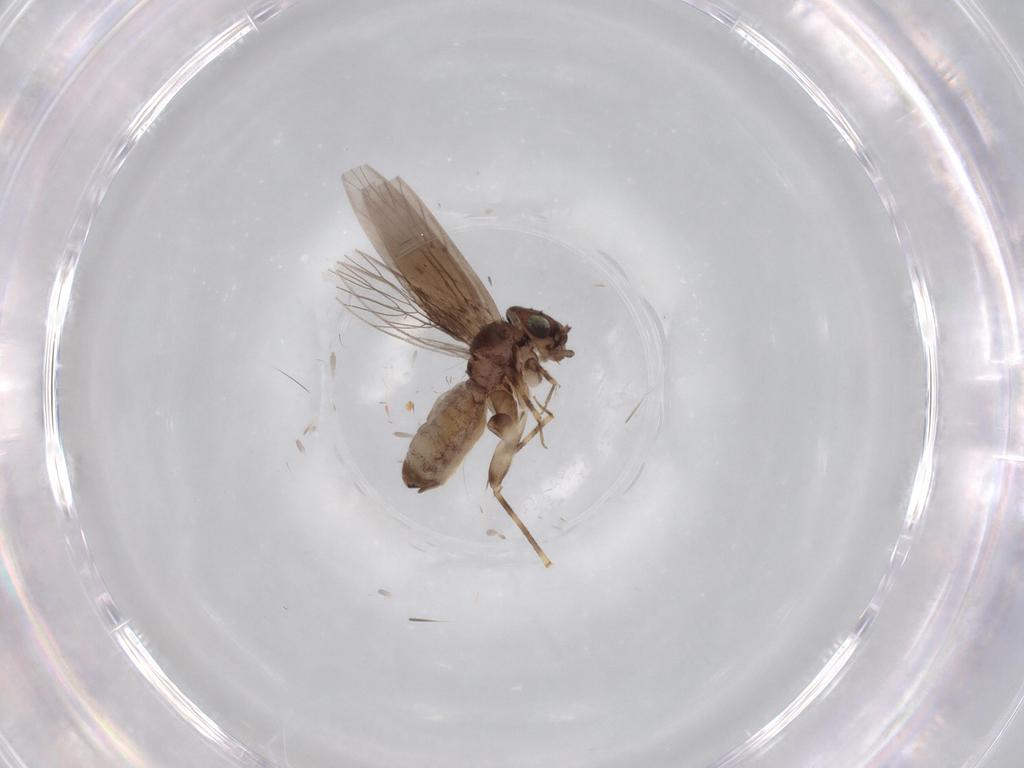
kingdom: Animalia
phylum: Arthropoda
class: Insecta
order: Psocodea
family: Lepidopsocidae
